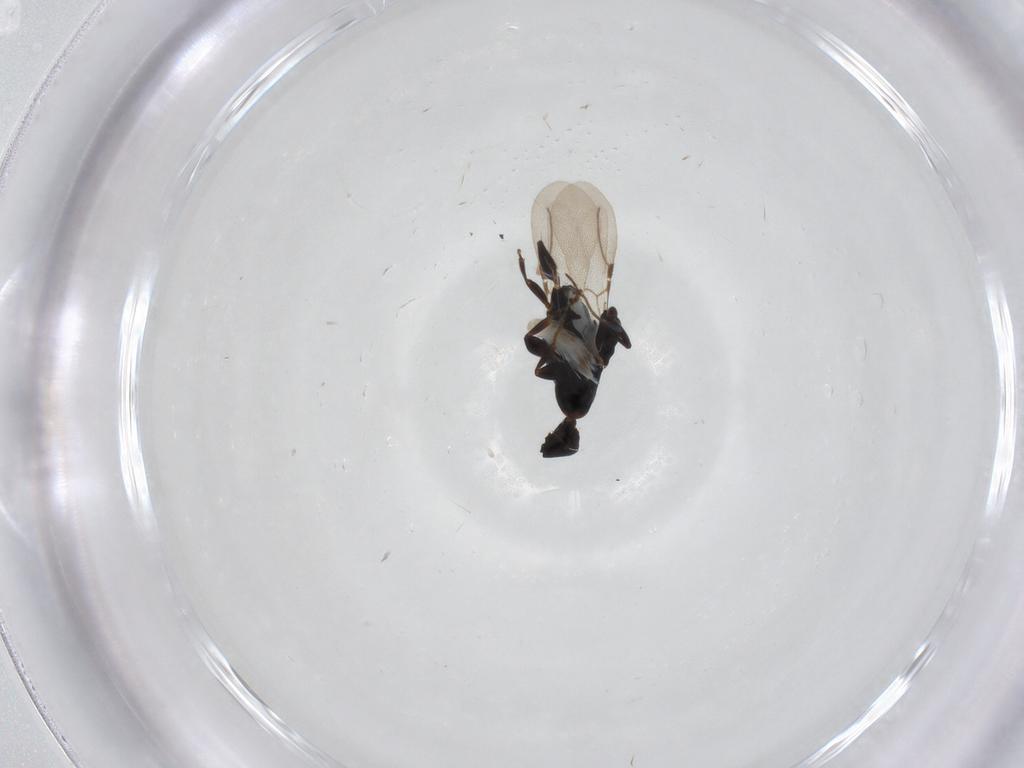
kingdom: Animalia
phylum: Arthropoda
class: Insecta
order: Hymenoptera
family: Bethylidae
